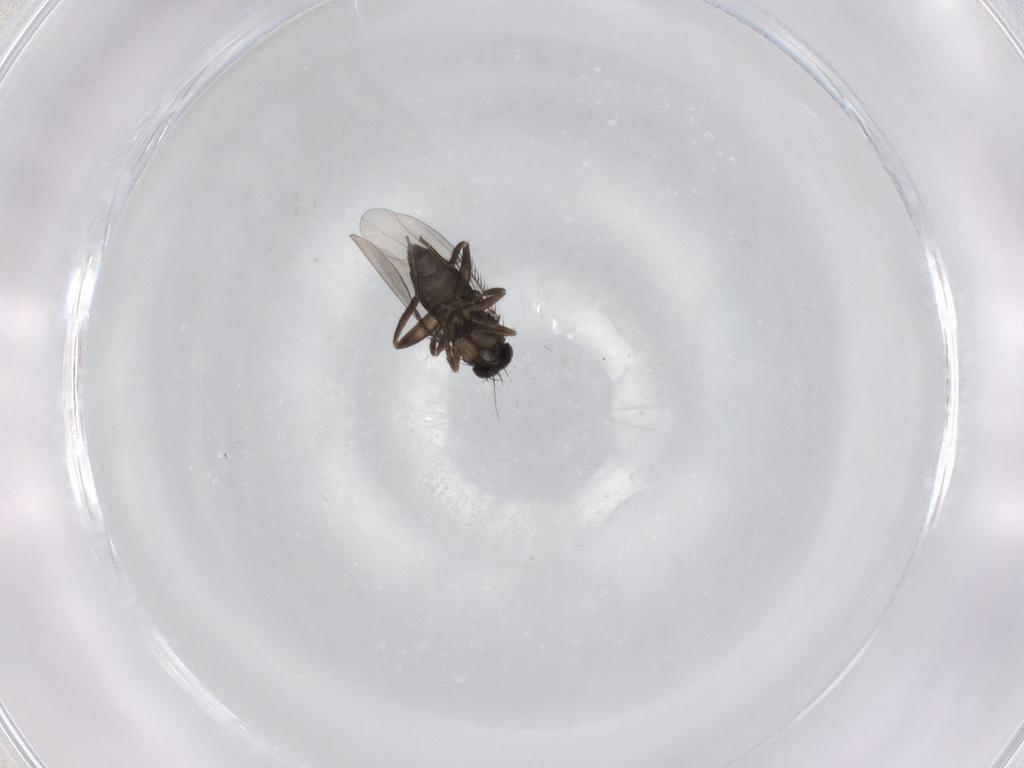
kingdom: Animalia
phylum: Arthropoda
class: Insecta
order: Diptera
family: Phoridae
